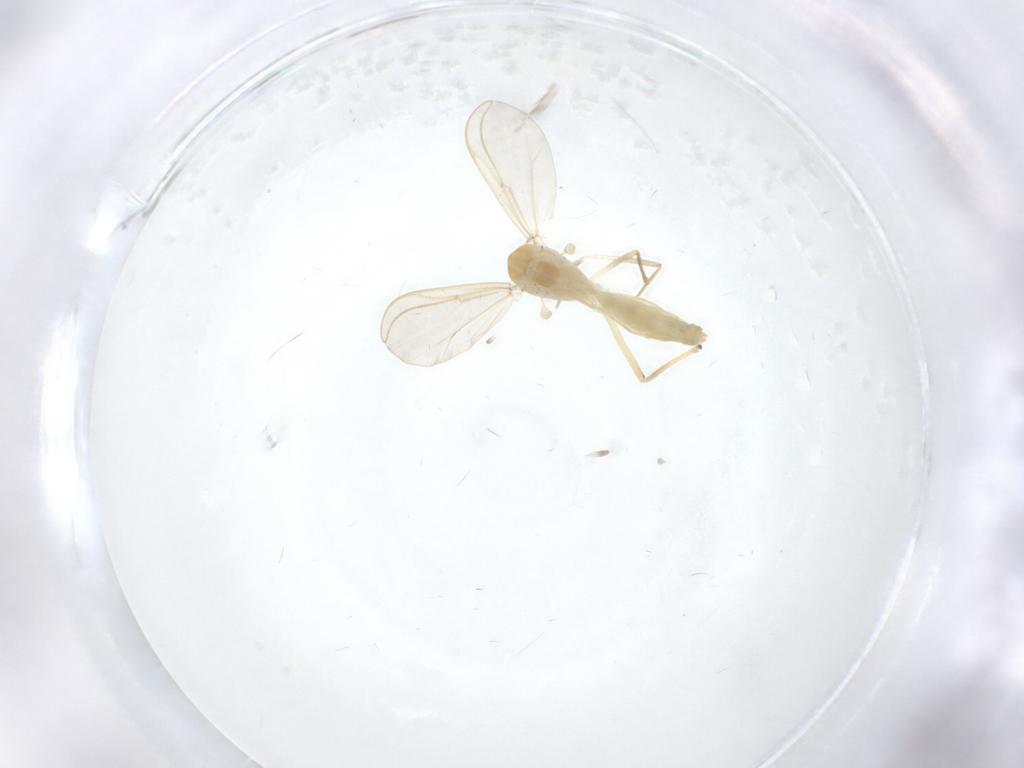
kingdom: Animalia
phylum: Arthropoda
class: Insecta
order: Diptera
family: Chironomidae
